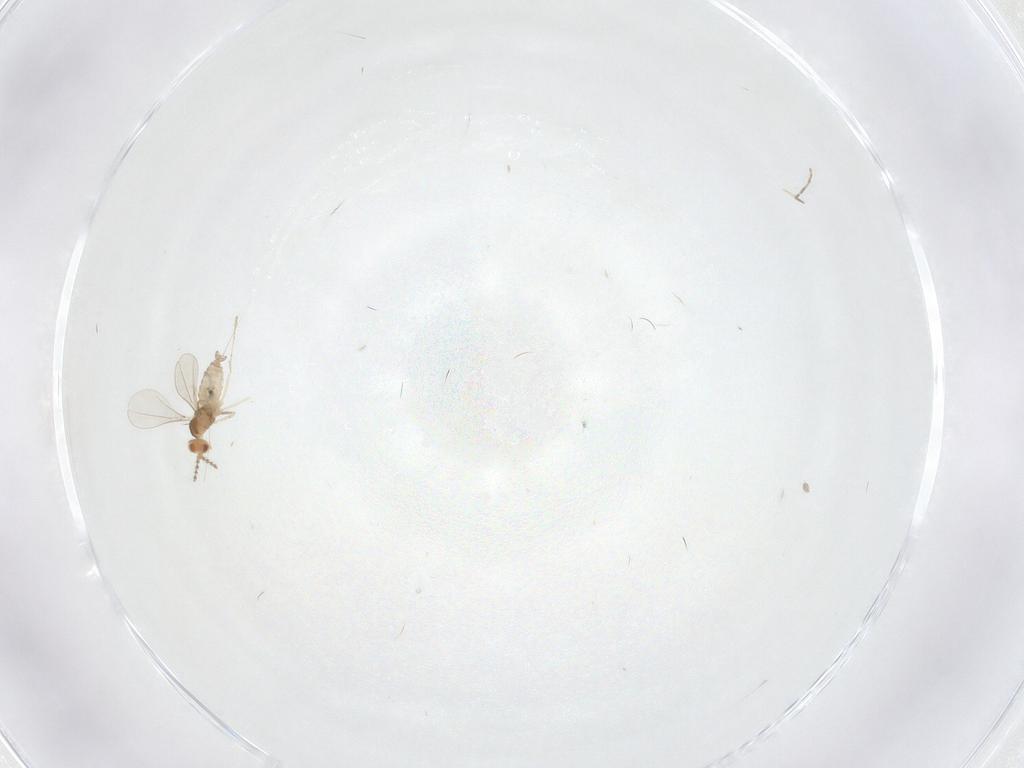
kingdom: Animalia
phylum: Arthropoda
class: Insecta
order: Diptera
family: Cecidomyiidae
